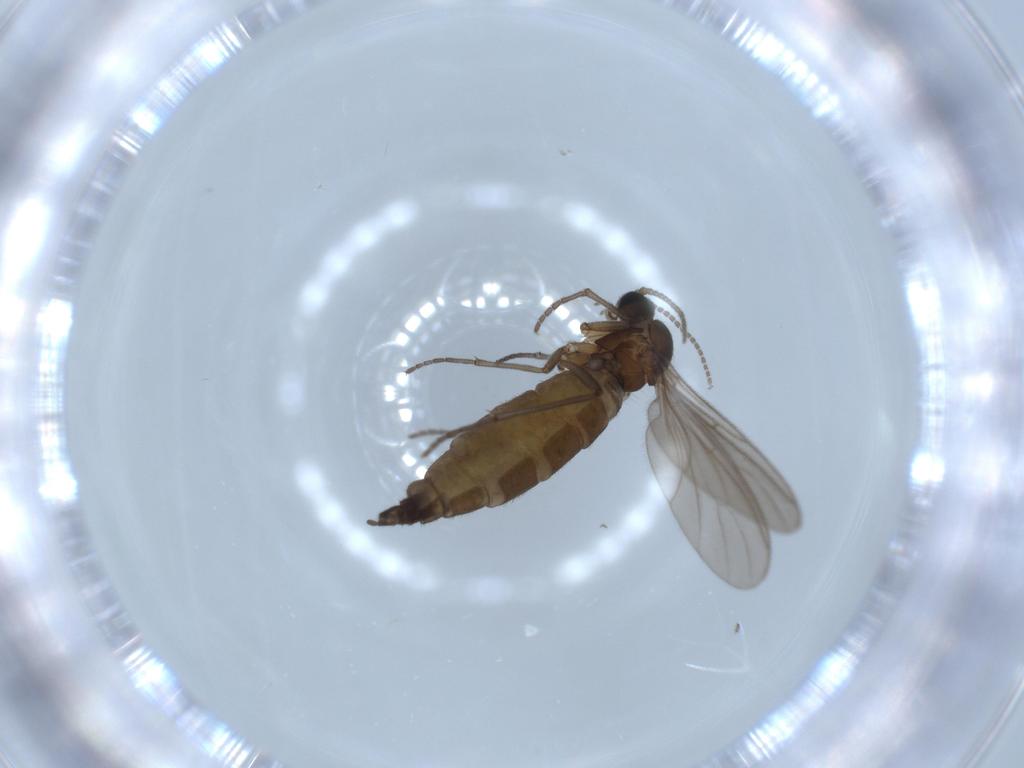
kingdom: Animalia
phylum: Arthropoda
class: Insecta
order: Diptera
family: Sciaridae
